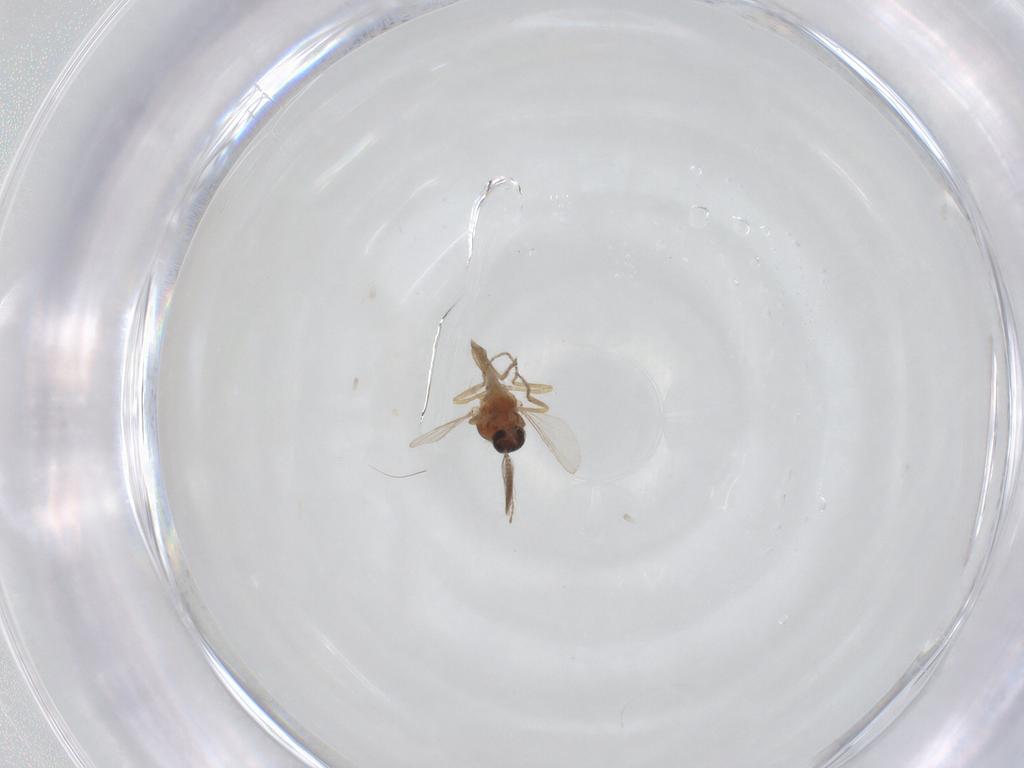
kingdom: Animalia
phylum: Arthropoda
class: Insecta
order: Diptera
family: Ceratopogonidae
